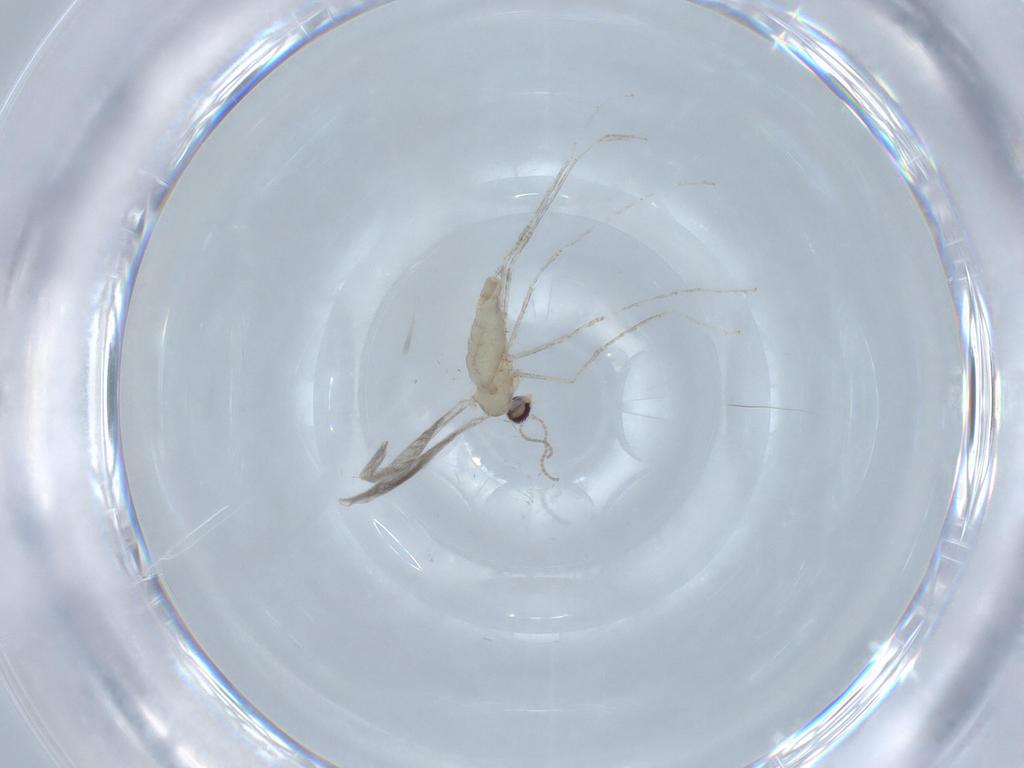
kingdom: Animalia
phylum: Arthropoda
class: Insecta
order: Diptera
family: Cecidomyiidae
